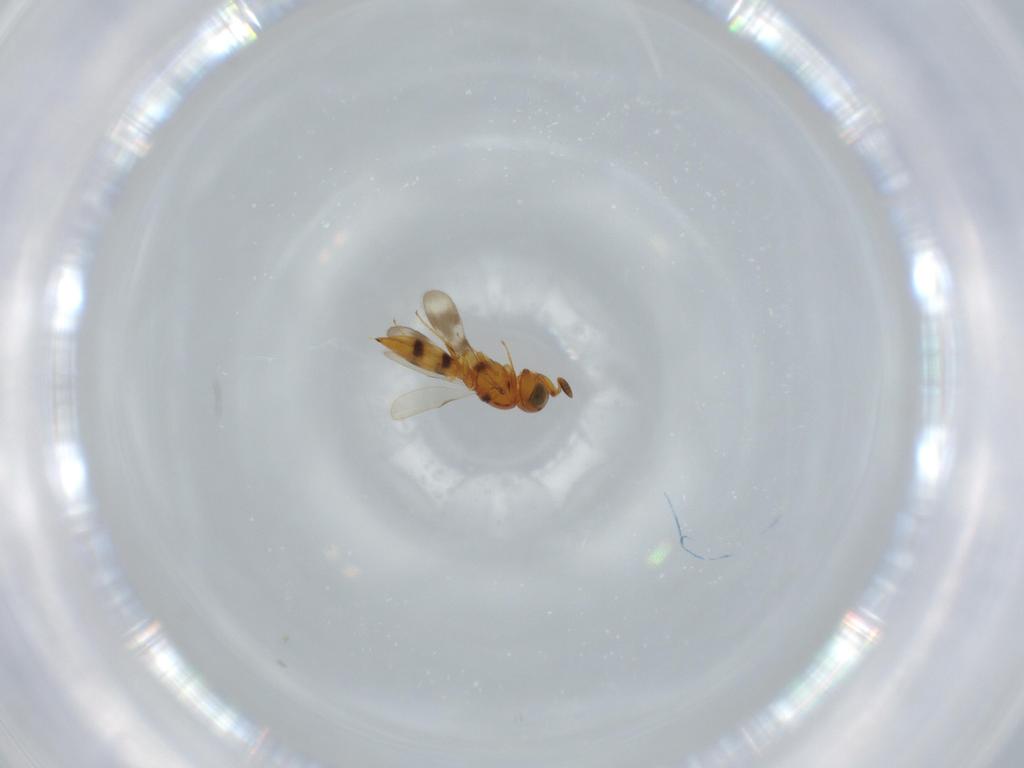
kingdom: Animalia
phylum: Arthropoda
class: Insecta
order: Hymenoptera
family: Scelionidae
